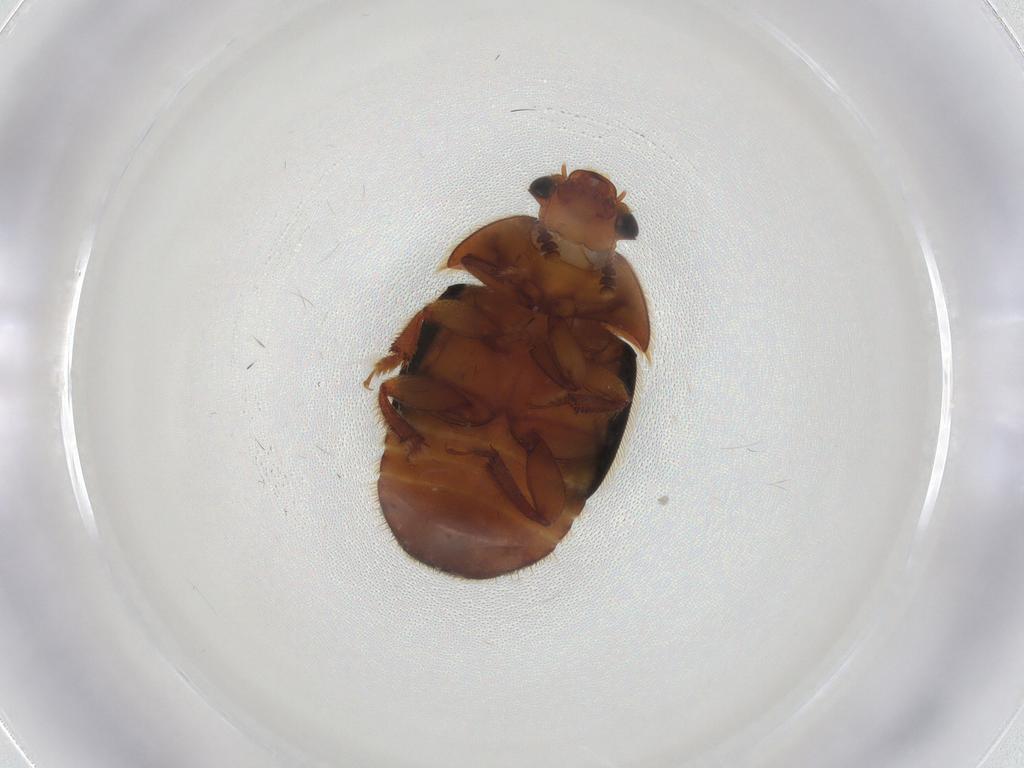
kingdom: Animalia
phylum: Arthropoda
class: Insecta
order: Coleoptera
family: Nitidulidae
